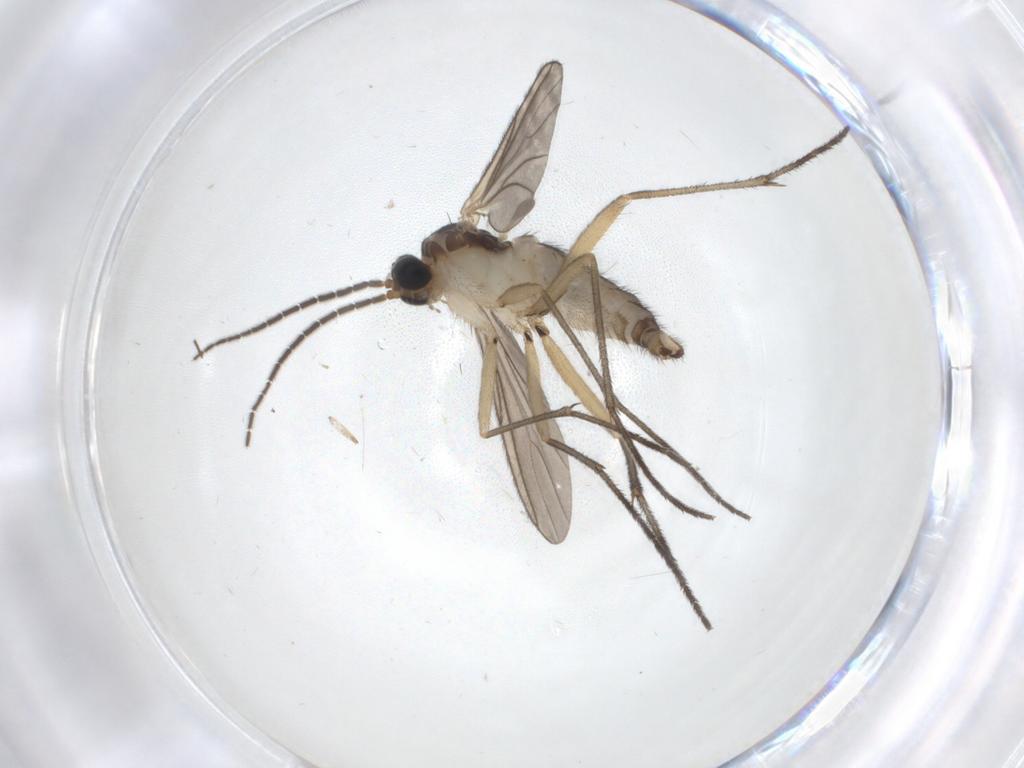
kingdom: Animalia
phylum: Arthropoda
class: Insecta
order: Diptera
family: Sciaridae
